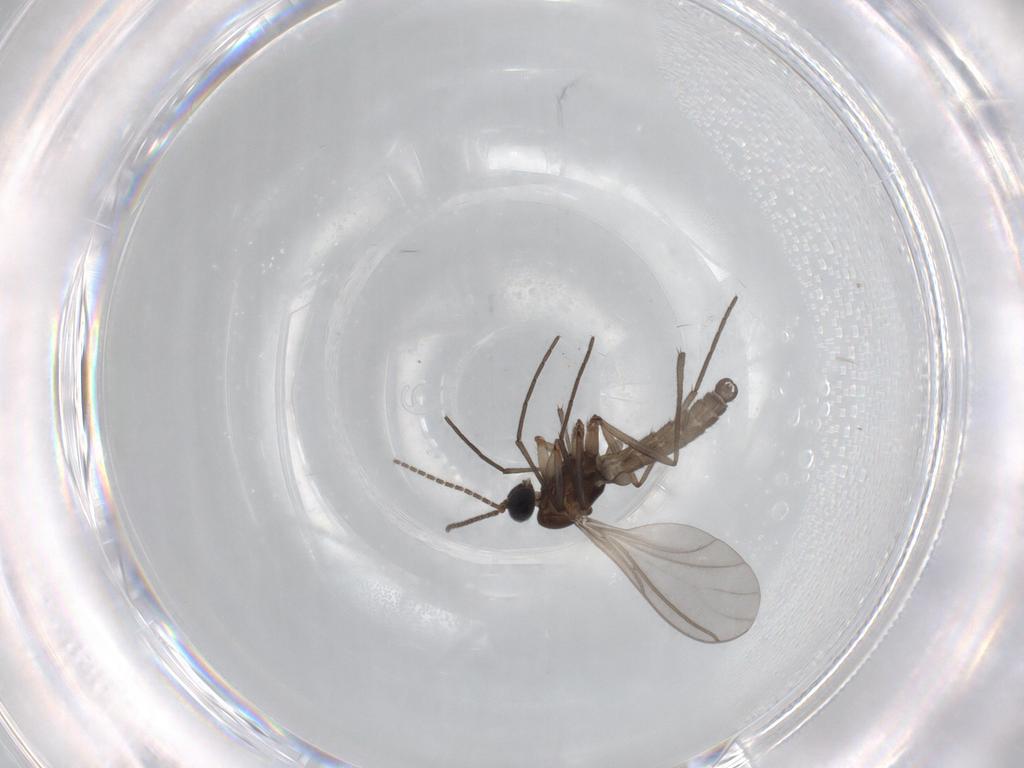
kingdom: Animalia
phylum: Arthropoda
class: Insecta
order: Diptera
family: Sciaridae
